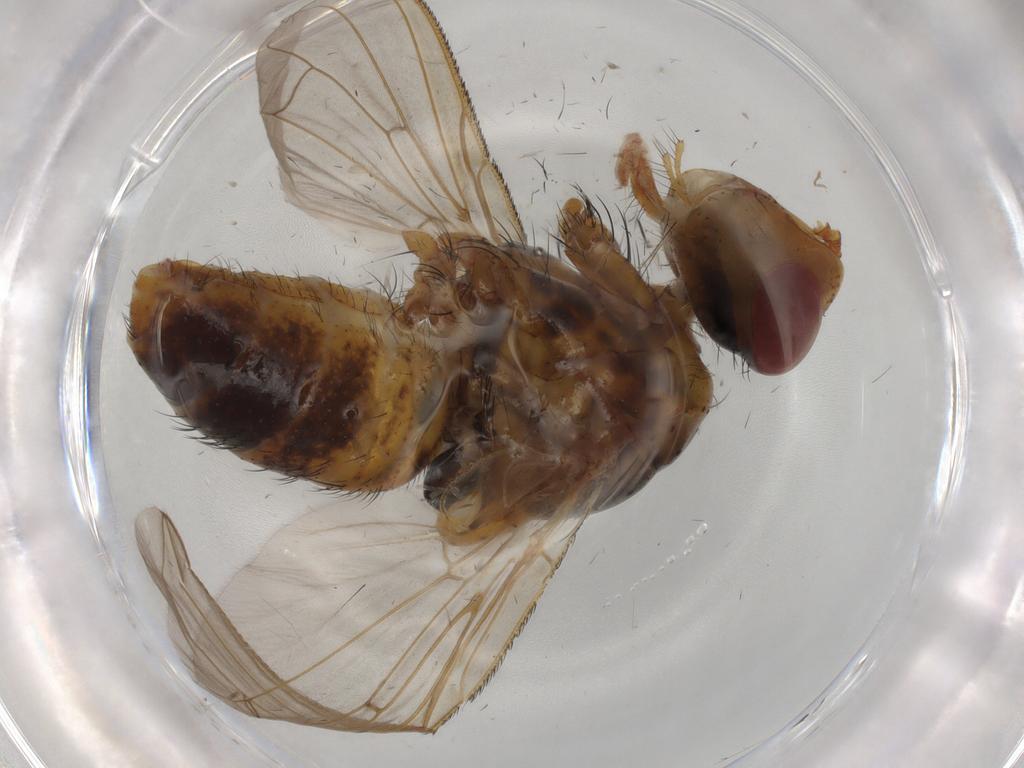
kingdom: Animalia
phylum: Arthropoda
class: Insecta
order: Diptera
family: Tachinidae
